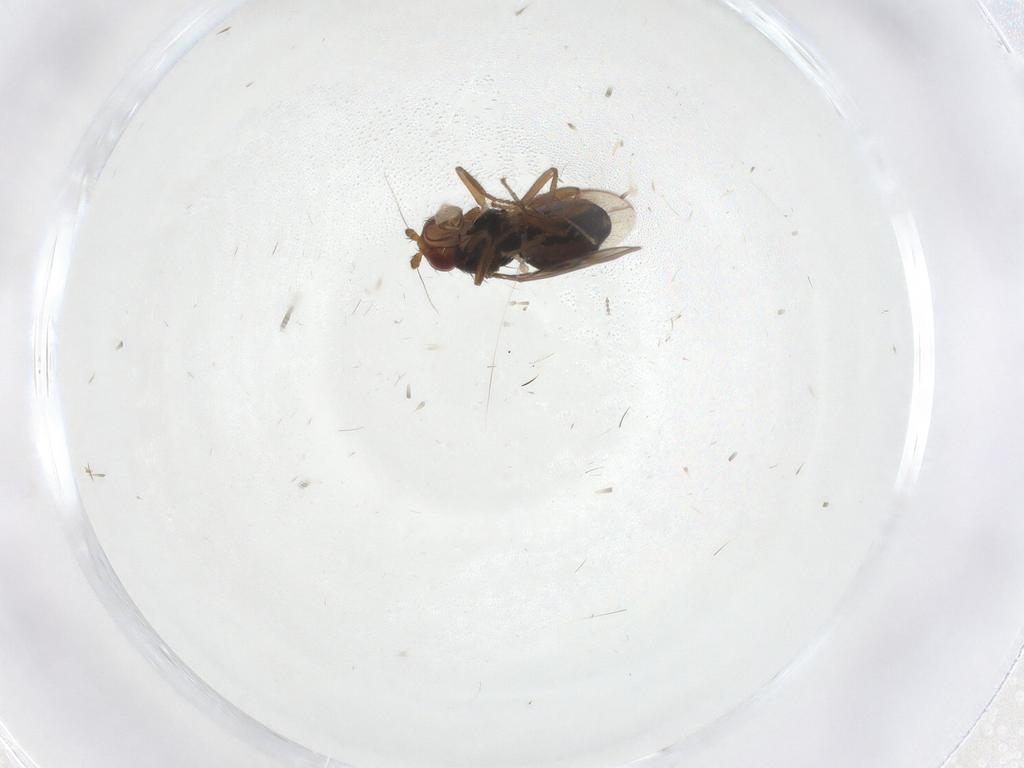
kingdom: Animalia
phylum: Arthropoda
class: Insecta
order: Diptera
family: Sphaeroceridae
